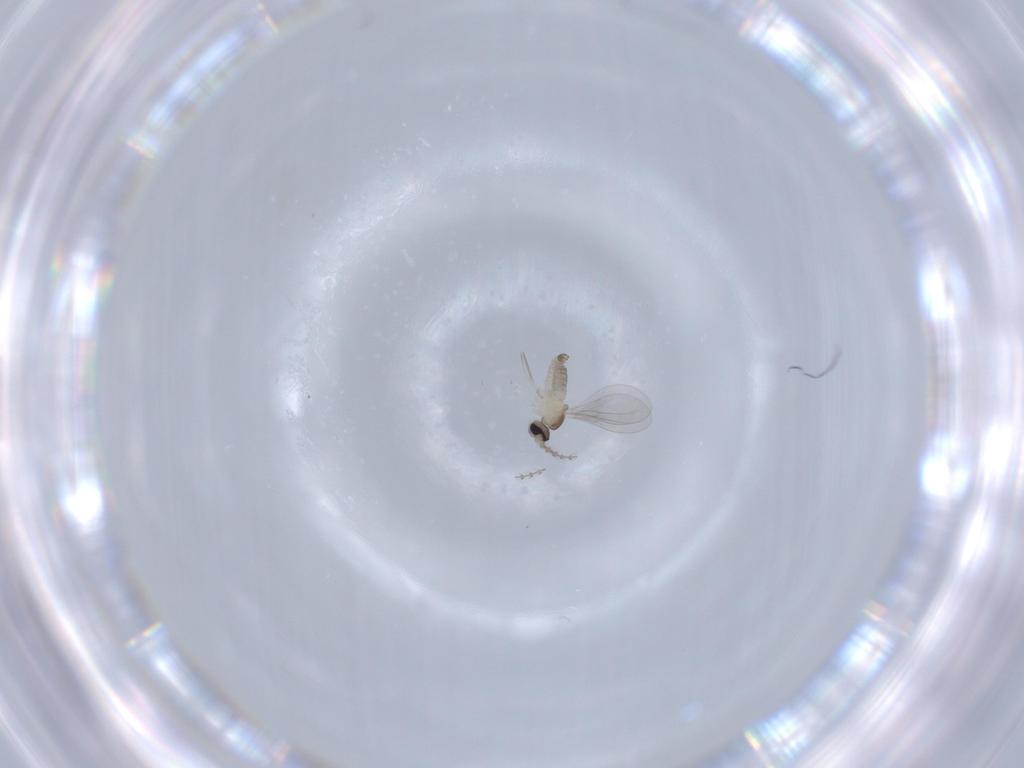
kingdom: Animalia
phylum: Arthropoda
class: Insecta
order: Diptera
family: Cecidomyiidae
